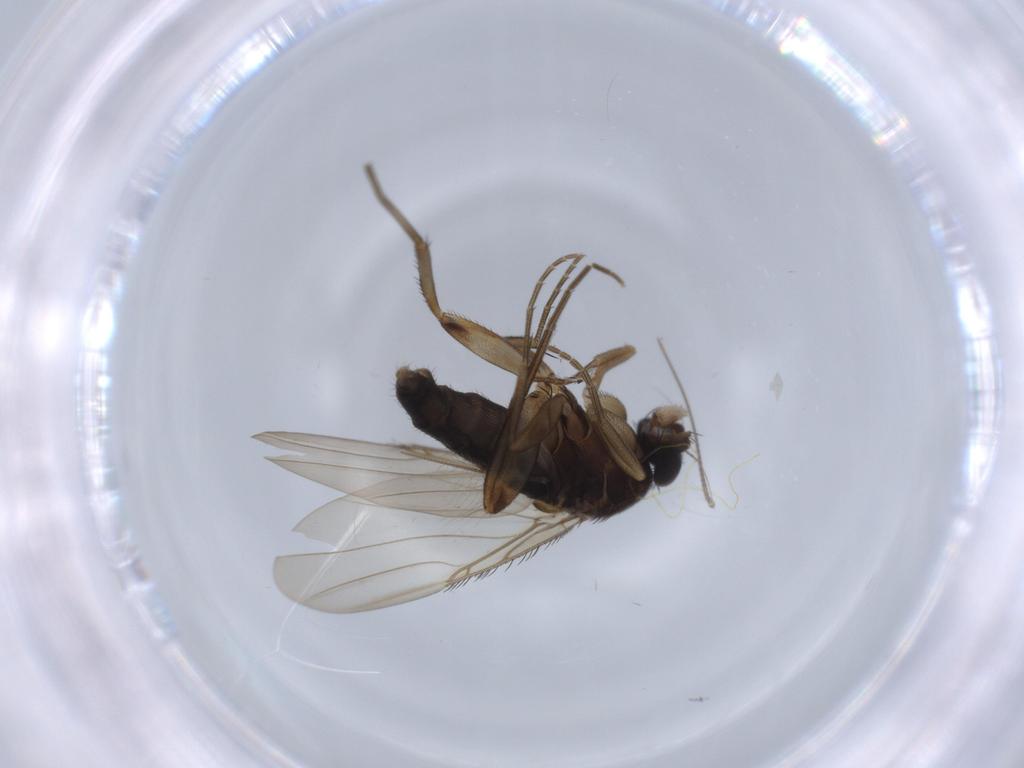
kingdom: Animalia
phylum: Arthropoda
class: Insecta
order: Diptera
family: Phoridae
